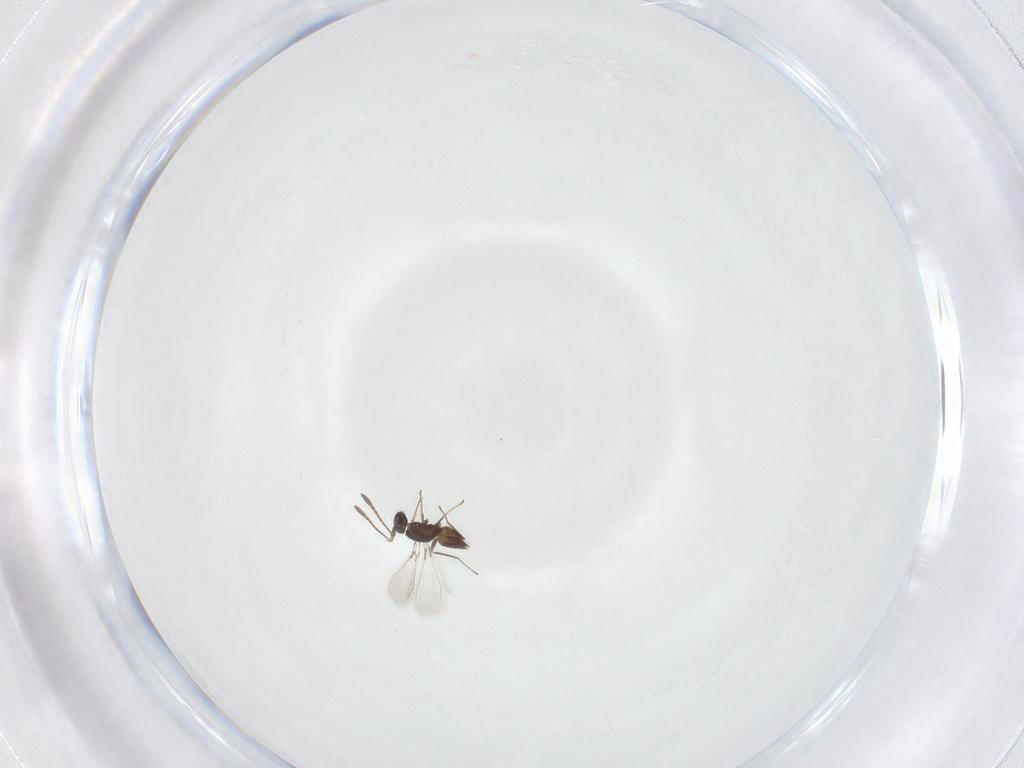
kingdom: Animalia
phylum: Arthropoda
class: Insecta
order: Hymenoptera
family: Mymaridae
